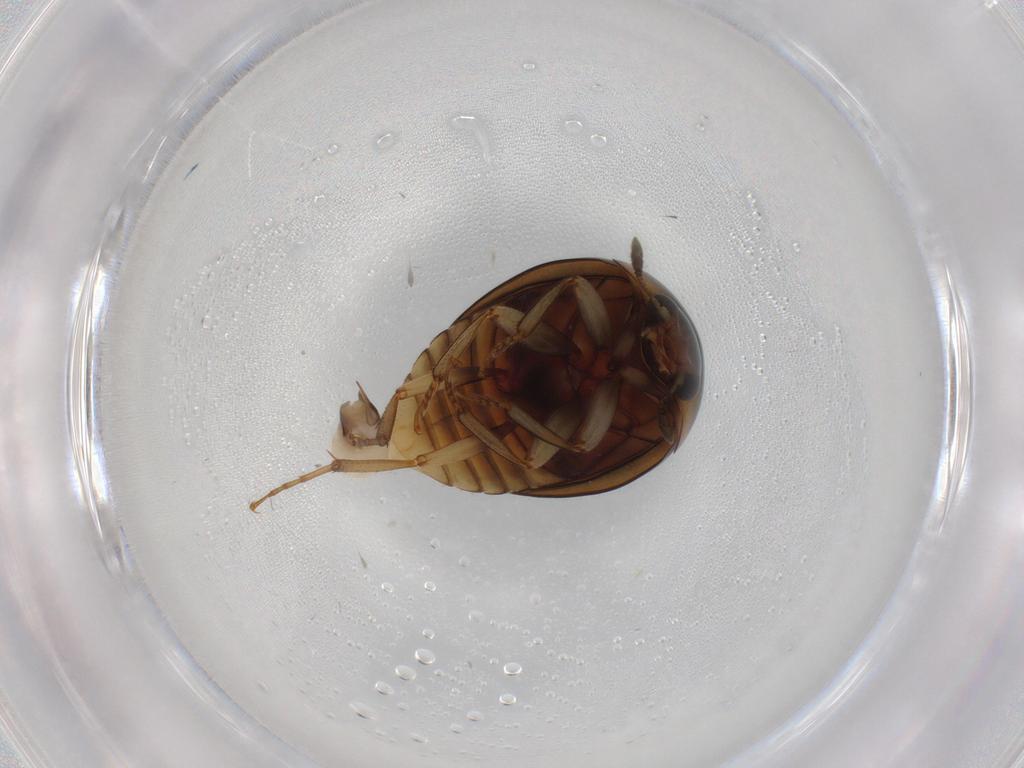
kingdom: Animalia
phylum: Arthropoda
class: Insecta
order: Coleoptera
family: Nitidulidae
